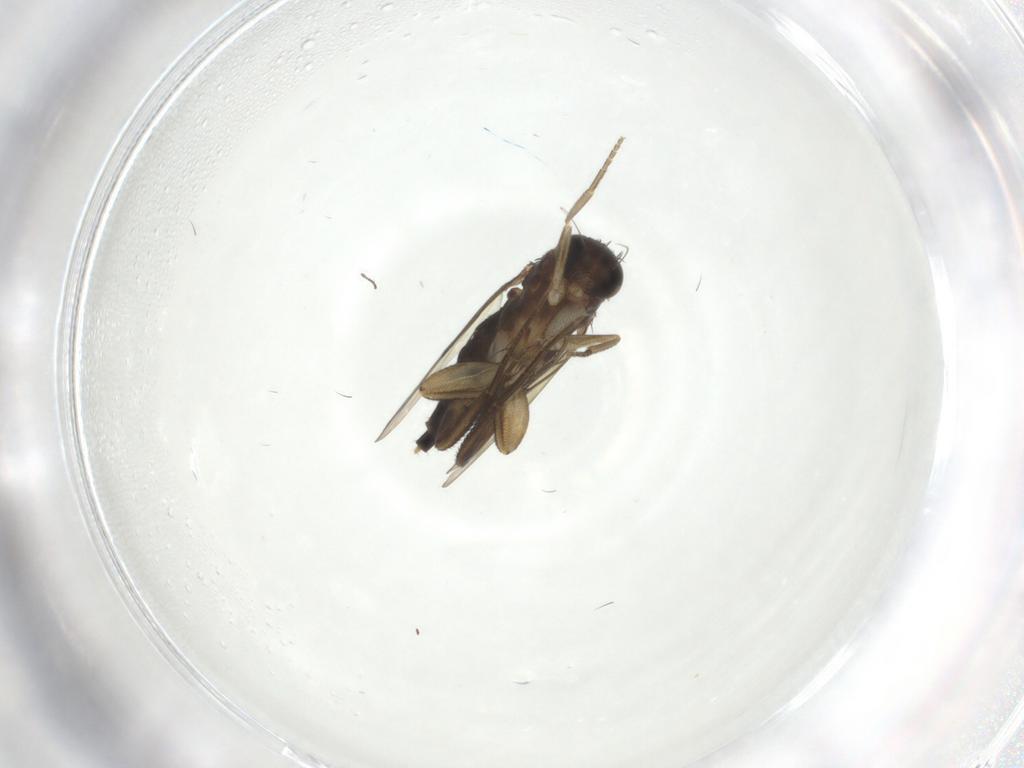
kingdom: Animalia
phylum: Arthropoda
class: Insecta
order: Diptera
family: Phoridae
